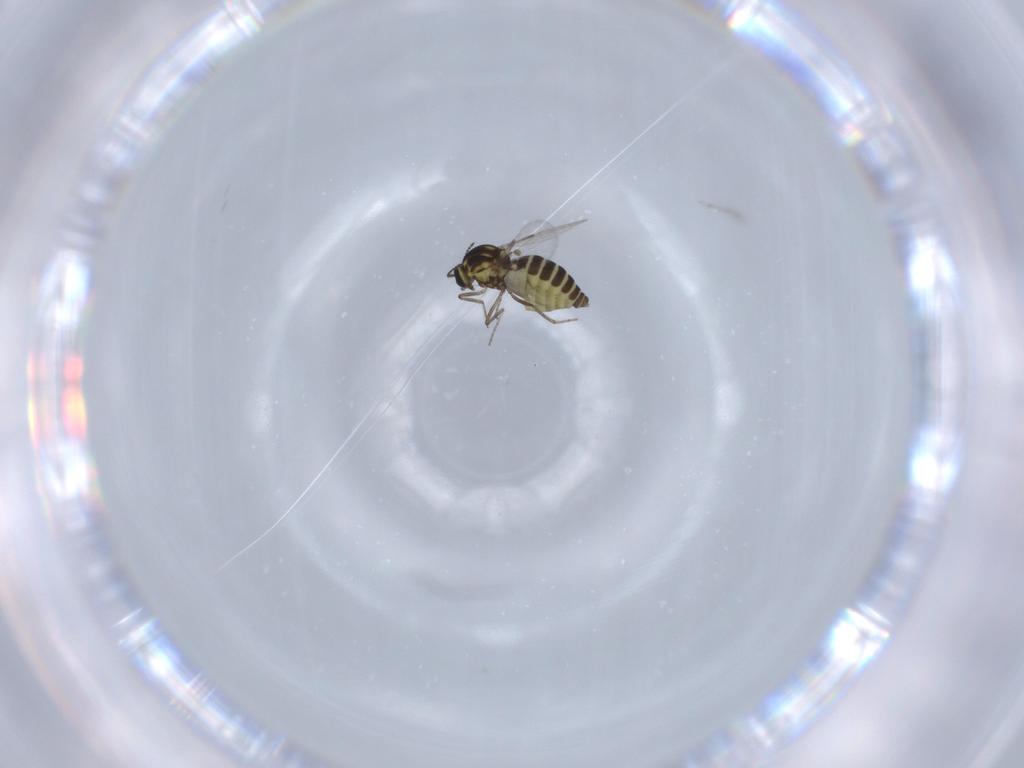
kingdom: Animalia
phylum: Arthropoda
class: Insecta
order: Diptera
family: Ceratopogonidae
